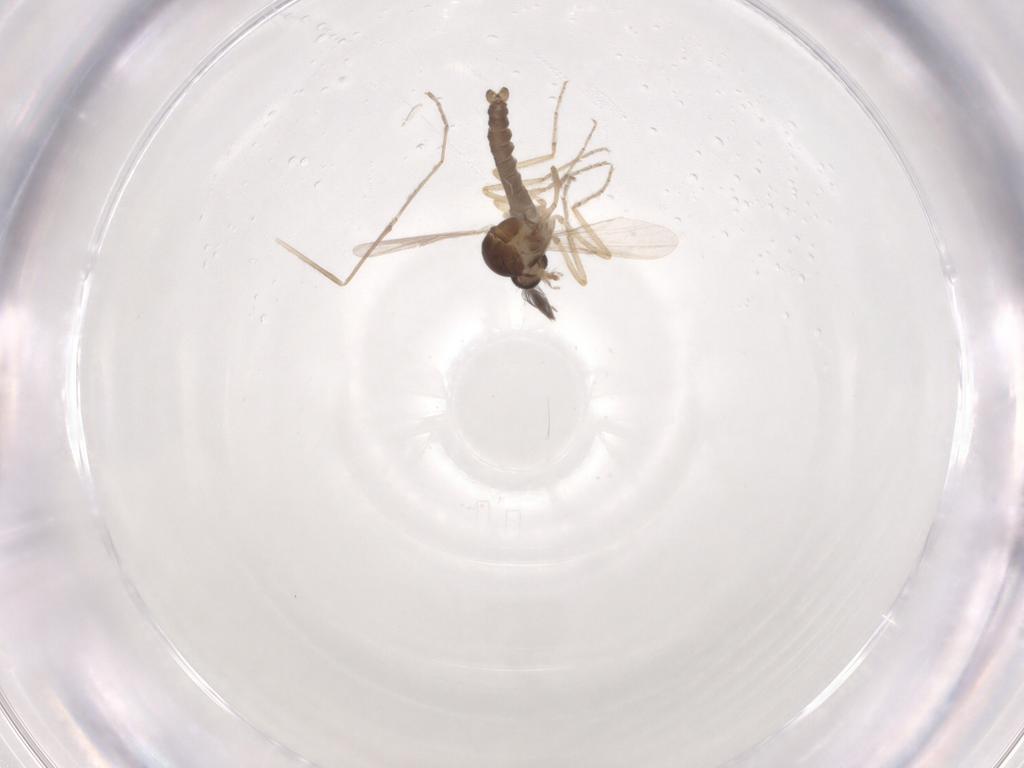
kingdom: Animalia
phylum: Arthropoda
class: Insecta
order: Diptera
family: Ceratopogonidae
